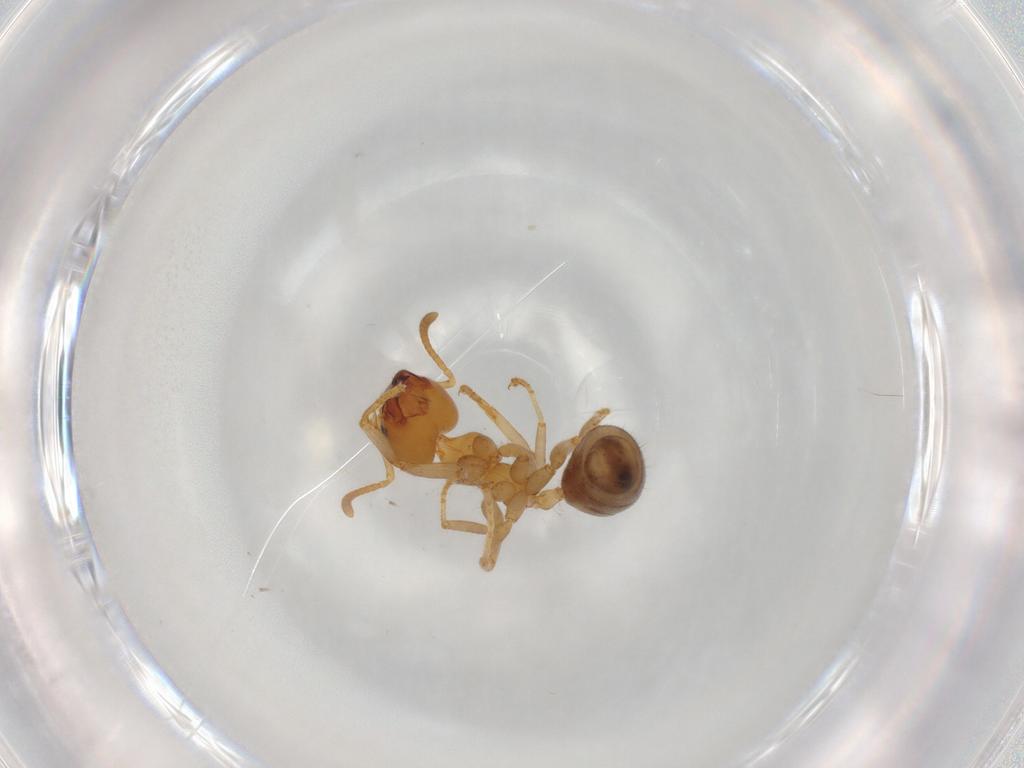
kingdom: Animalia
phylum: Arthropoda
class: Insecta
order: Hymenoptera
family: Formicidae
